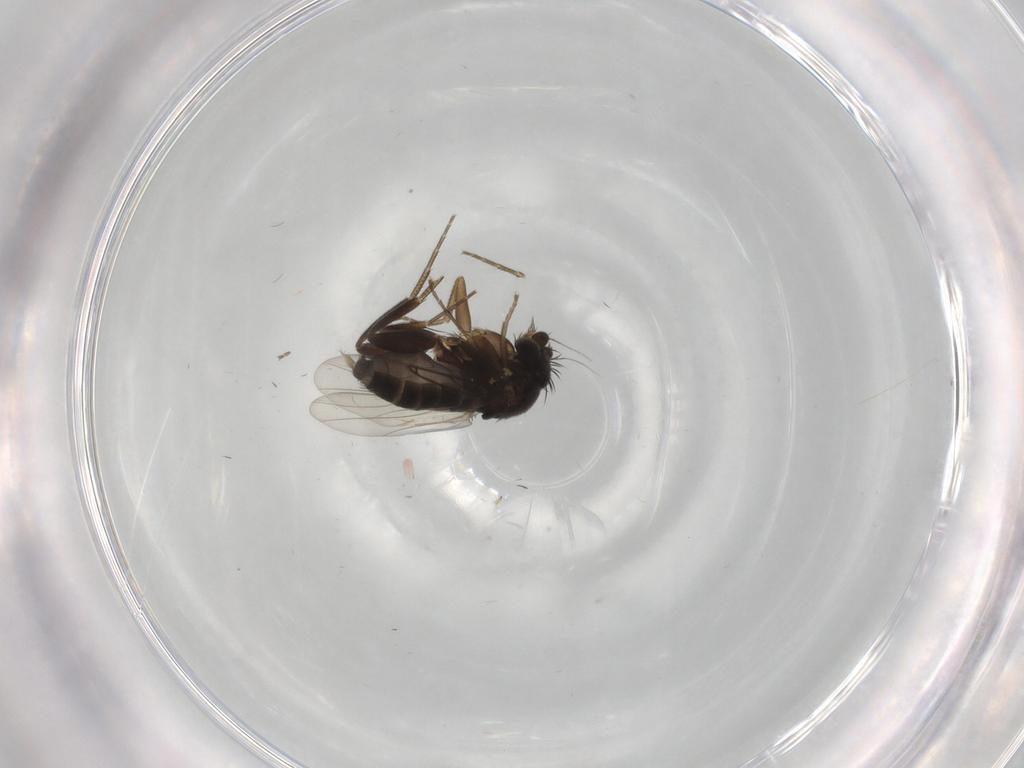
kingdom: Animalia
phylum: Arthropoda
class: Insecta
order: Diptera
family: Phoridae
